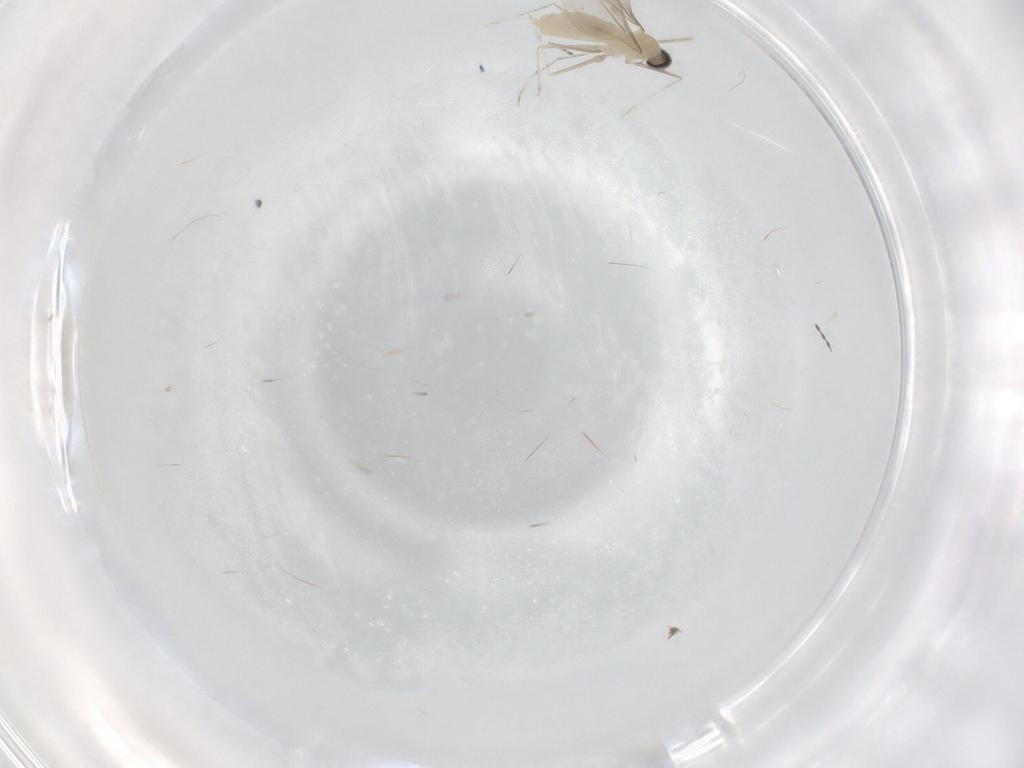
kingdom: Animalia
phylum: Arthropoda
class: Insecta
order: Diptera
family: Cecidomyiidae
